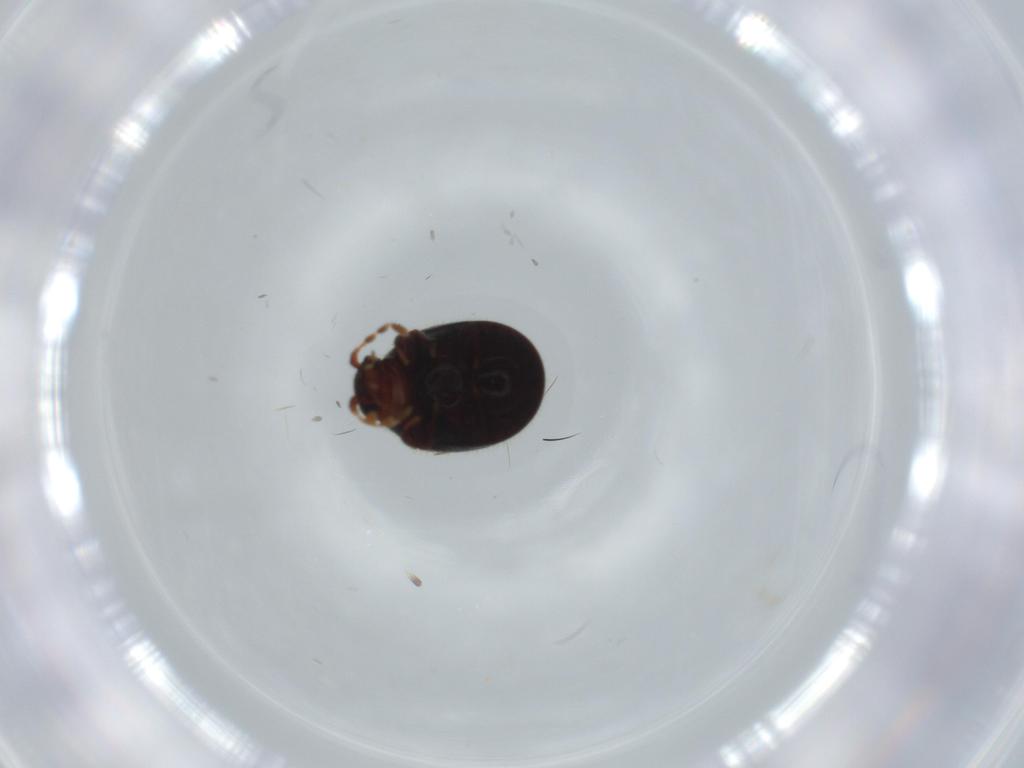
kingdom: Animalia
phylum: Arthropoda
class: Insecta
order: Coleoptera
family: Ptinidae
